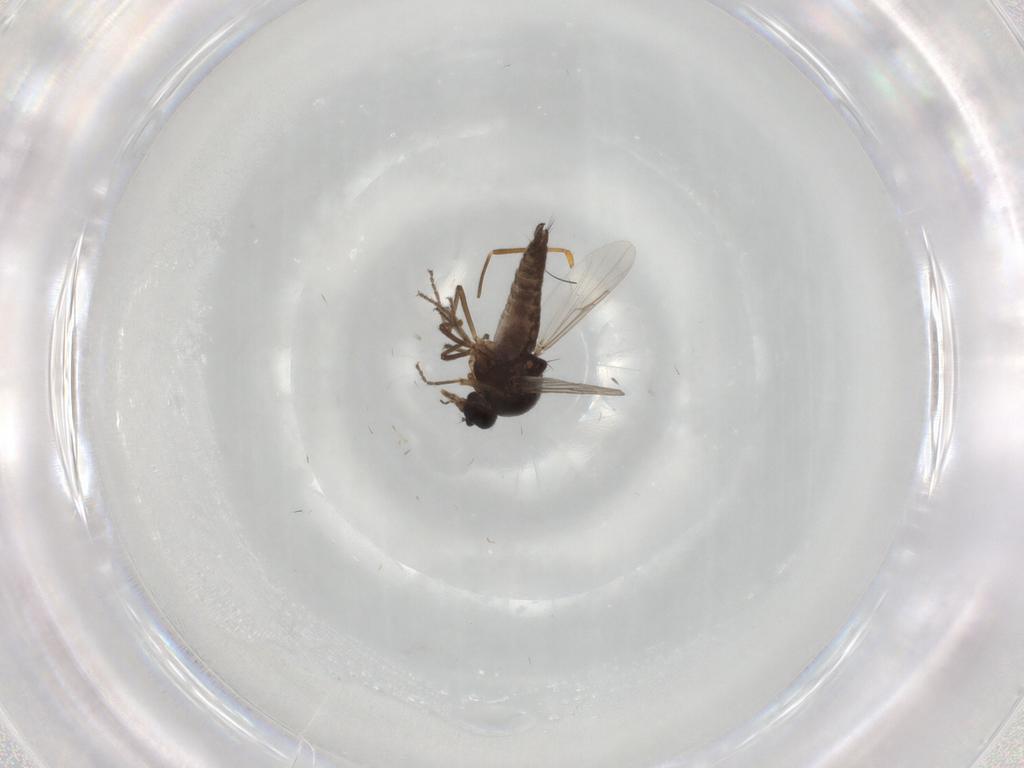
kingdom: Animalia
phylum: Arthropoda
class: Insecta
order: Diptera
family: Ceratopogonidae
